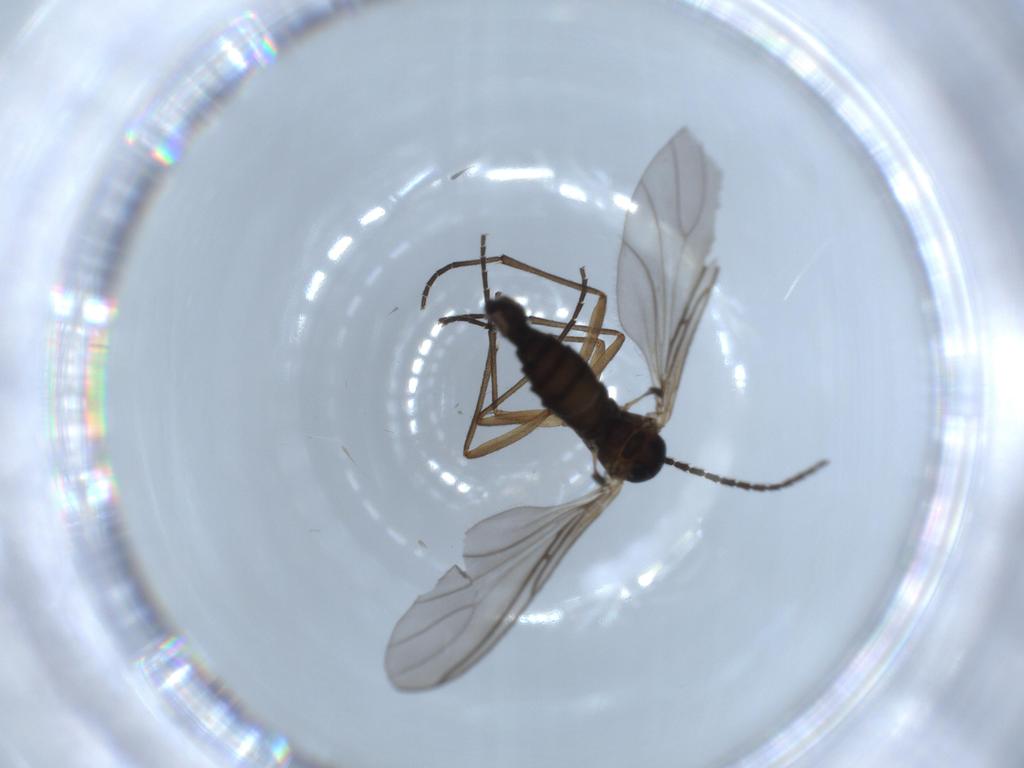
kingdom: Animalia
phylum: Arthropoda
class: Insecta
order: Diptera
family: Sciaridae
